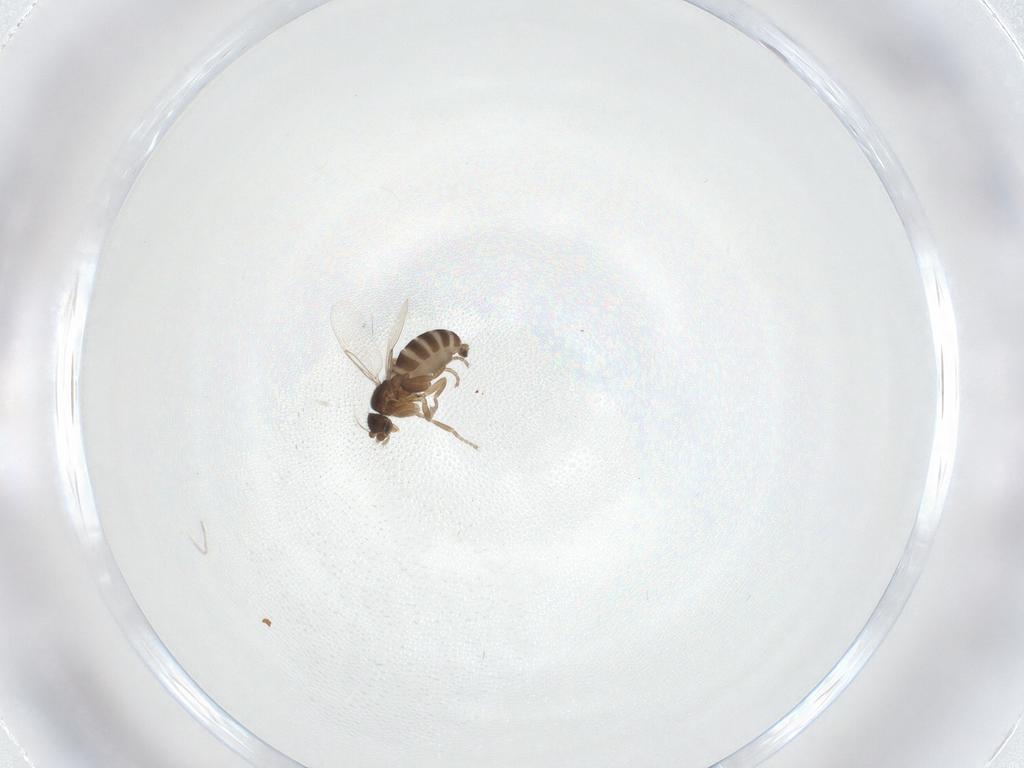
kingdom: Animalia
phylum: Arthropoda
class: Insecta
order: Diptera
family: Phoridae
